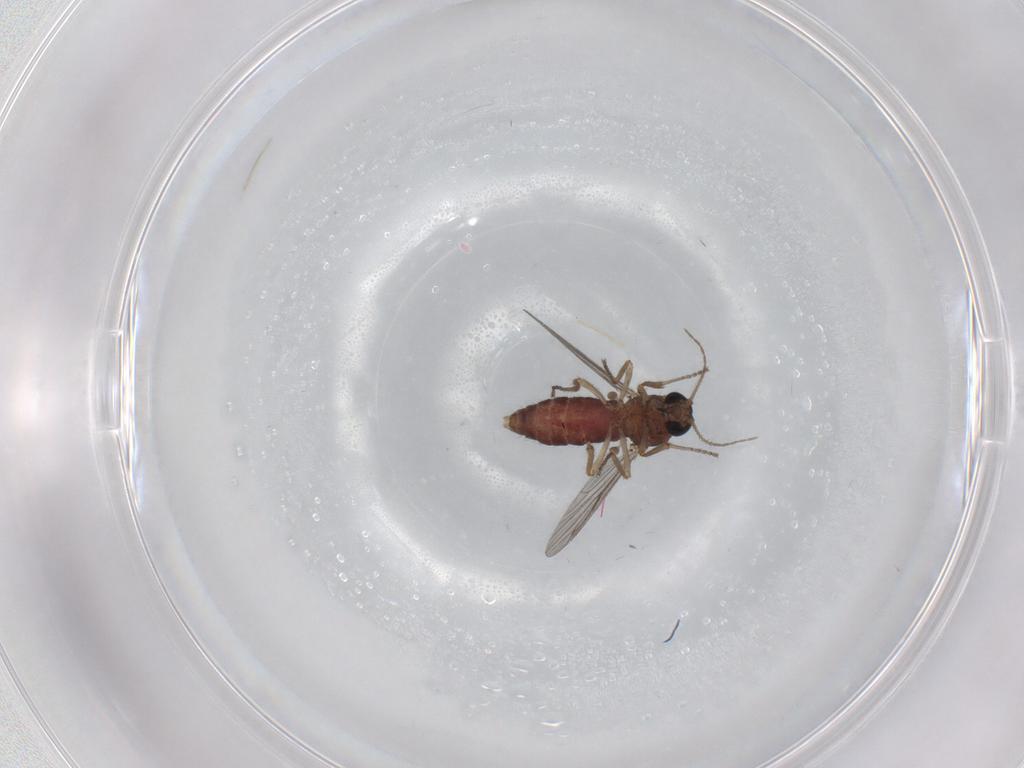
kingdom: Animalia
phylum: Arthropoda
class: Insecta
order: Diptera
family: Ceratopogonidae
